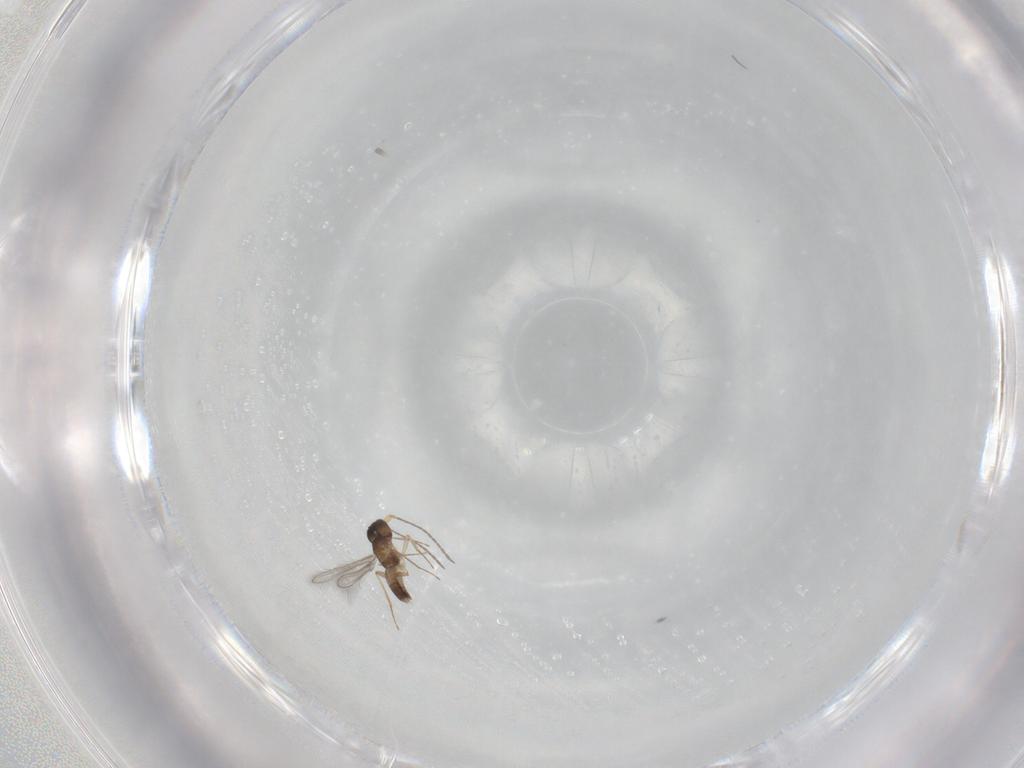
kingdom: Animalia
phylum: Arthropoda
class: Insecta
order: Hymenoptera
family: Mymaridae
